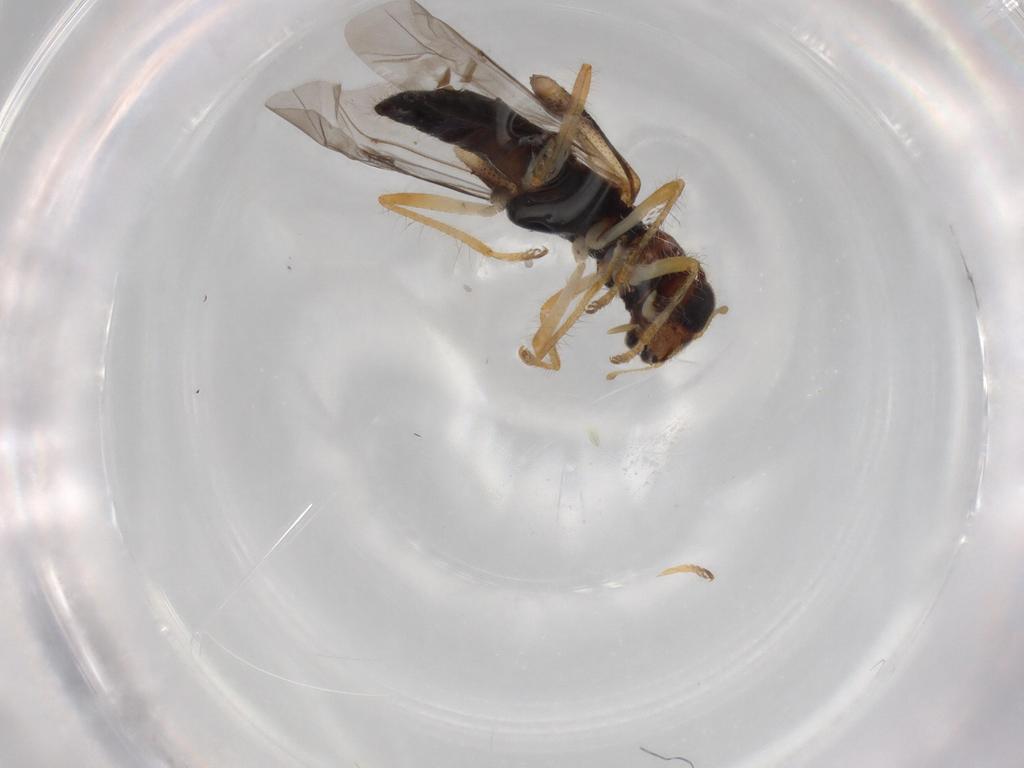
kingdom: Animalia
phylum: Arthropoda
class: Insecta
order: Coleoptera
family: Cleridae
